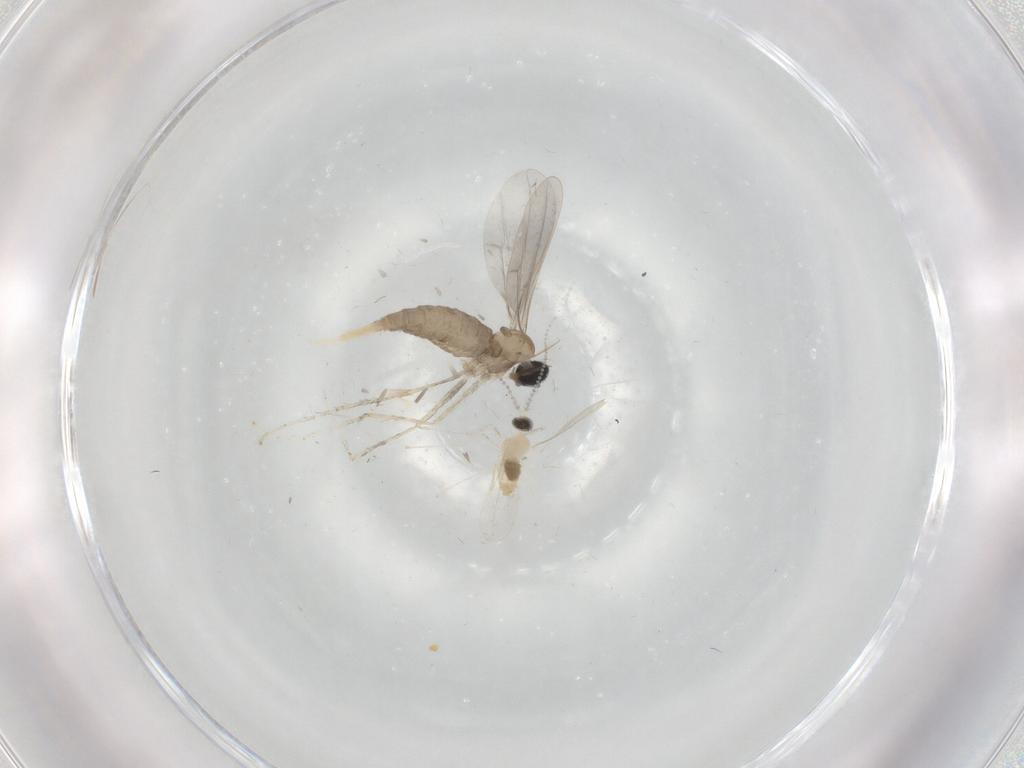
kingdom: Animalia
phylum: Arthropoda
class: Insecta
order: Diptera
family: Cecidomyiidae
